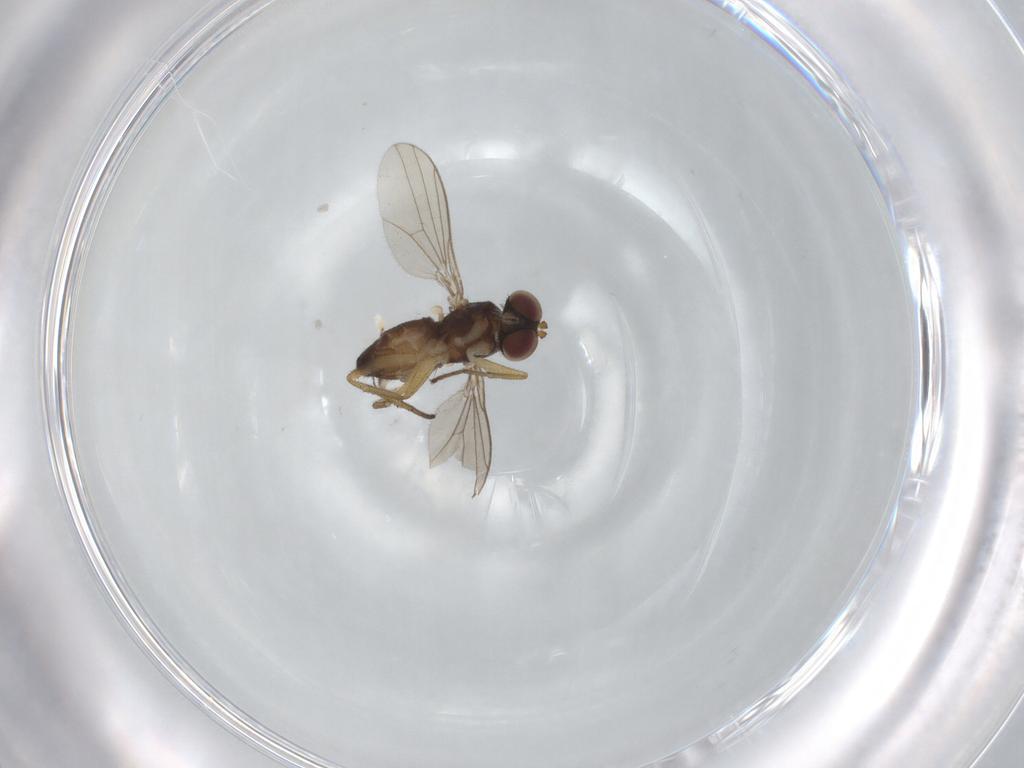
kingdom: Animalia
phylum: Arthropoda
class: Insecta
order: Diptera
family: Dolichopodidae
